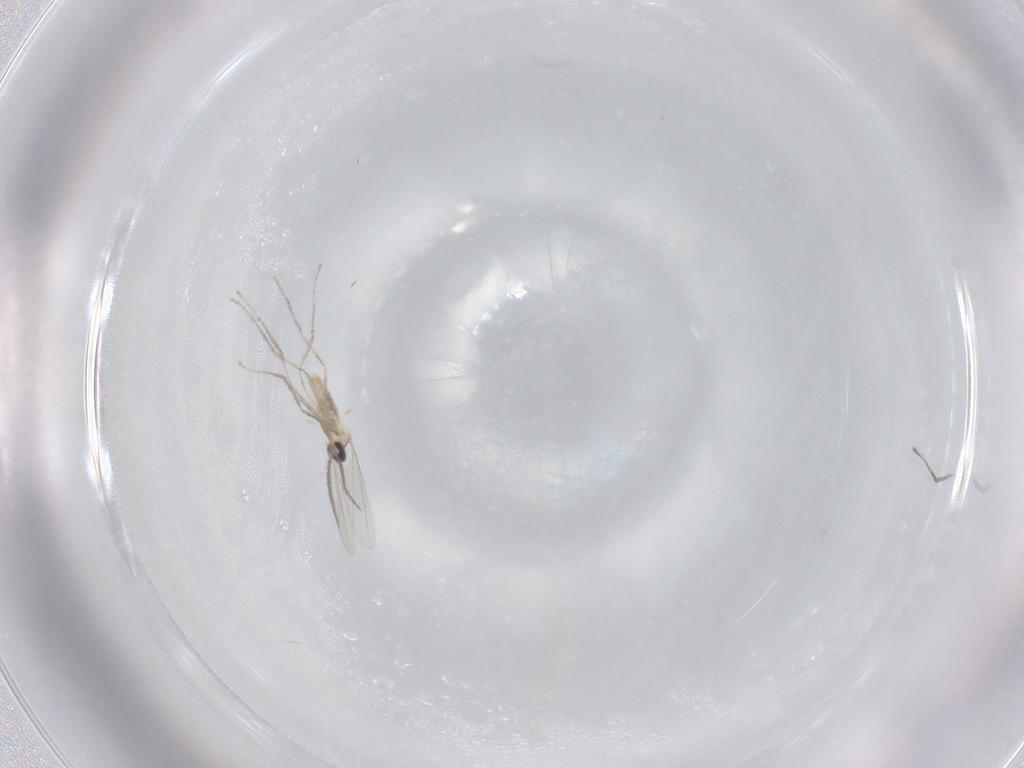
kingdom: Animalia
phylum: Arthropoda
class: Insecta
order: Diptera
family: Cecidomyiidae
